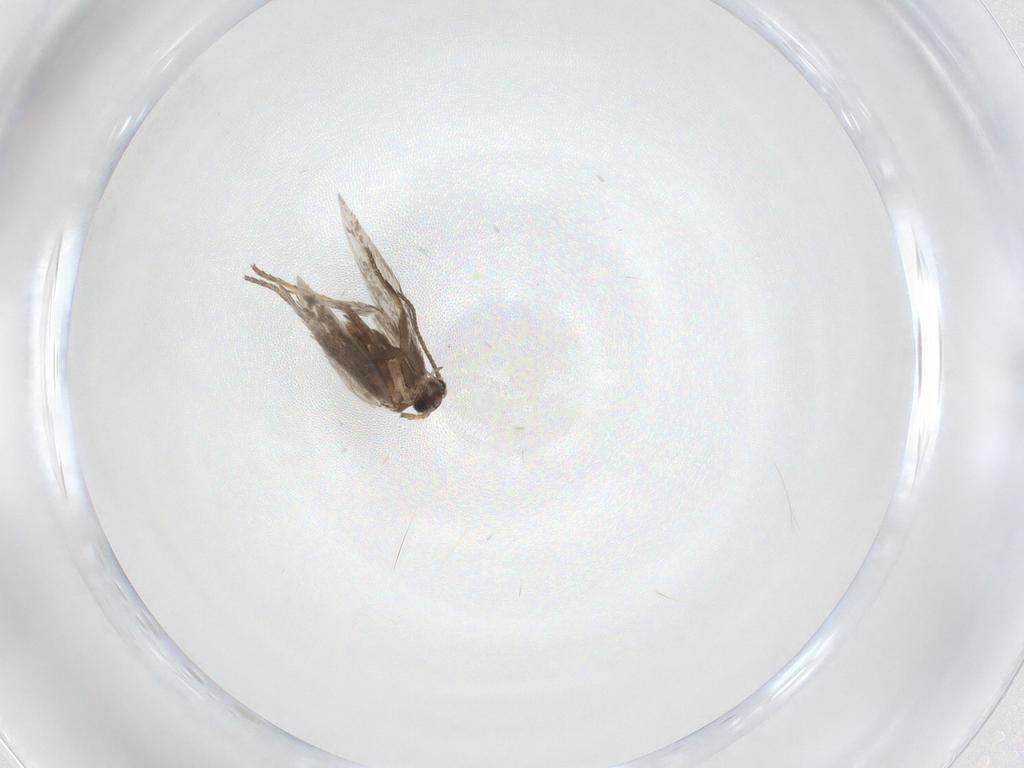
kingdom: Animalia
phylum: Arthropoda
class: Insecta
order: Lepidoptera
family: Nepticulidae
